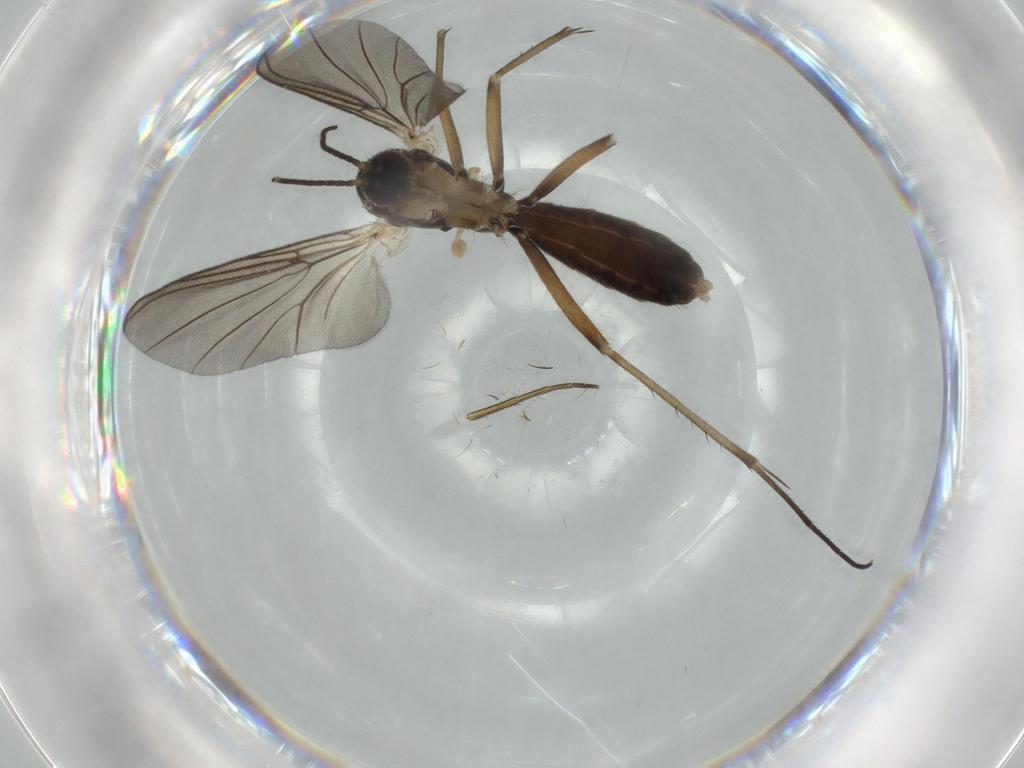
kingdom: Animalia
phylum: Arthropoda
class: Insecta
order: Diptera
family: Mycetophilidae
